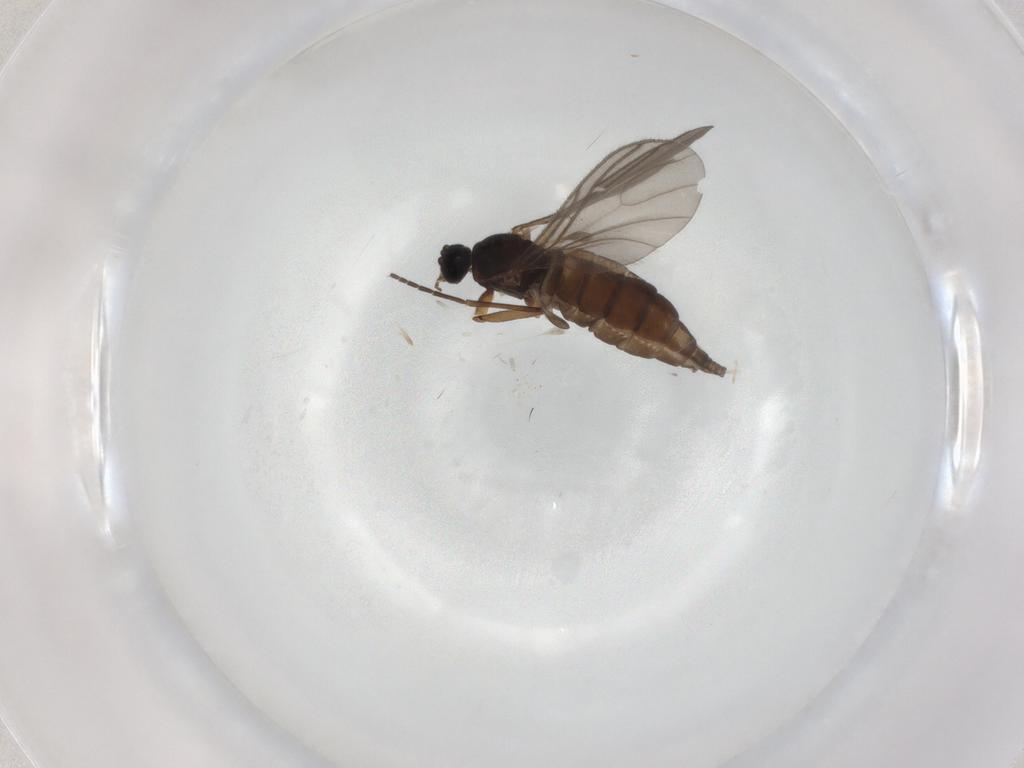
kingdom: Animalia
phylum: Arthropoda
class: Insecta
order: Diptera
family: Sciaridae
